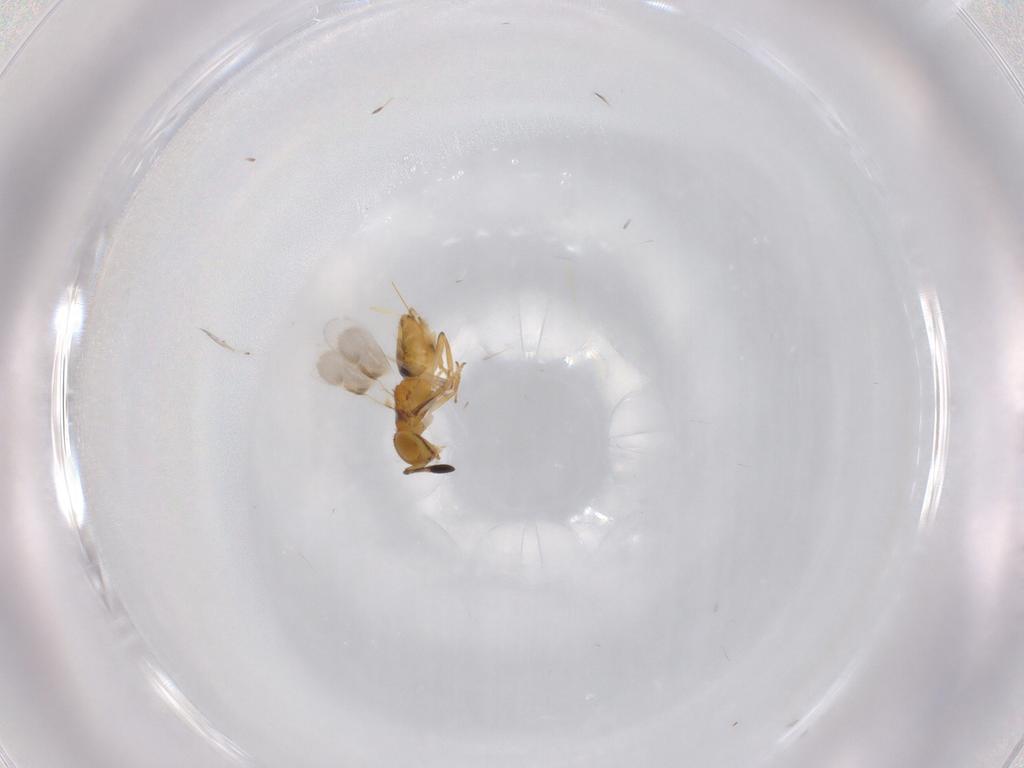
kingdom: Animalia
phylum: Arthropoda
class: Insecta
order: Hymenoptera
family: Encyrtidae
